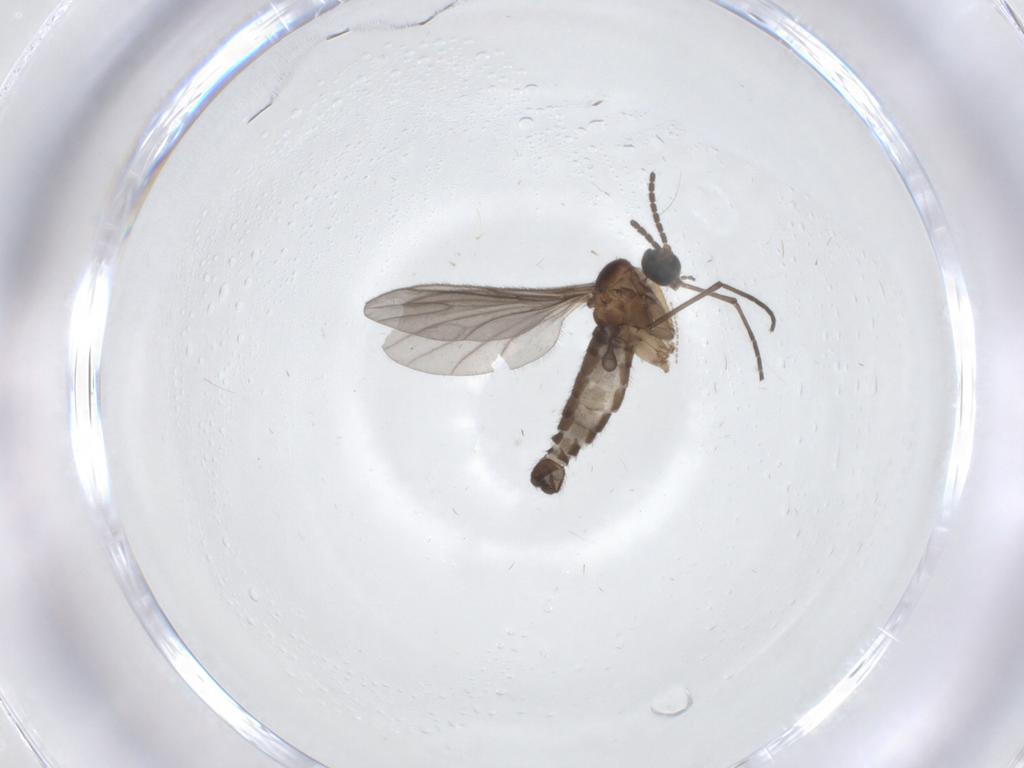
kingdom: Animalia
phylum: Arthropoda
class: Insecta
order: Diptera
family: Sciaridae
